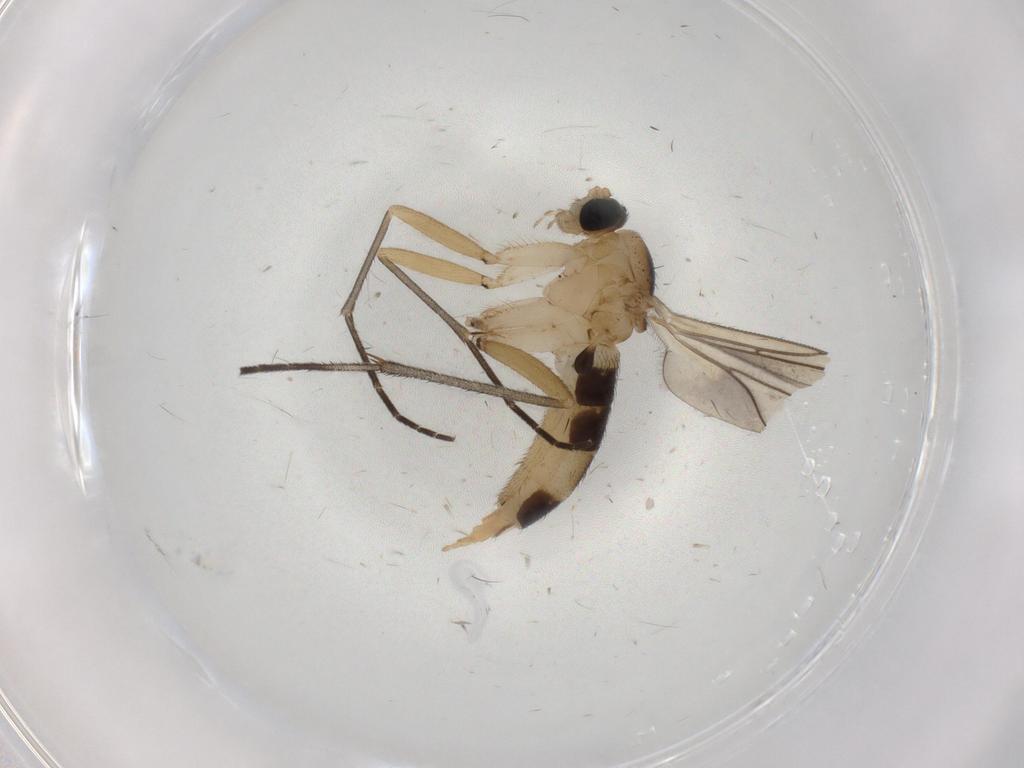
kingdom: Animalia
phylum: Arthropoda
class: Insecta
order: Diptera
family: Sciaridae
